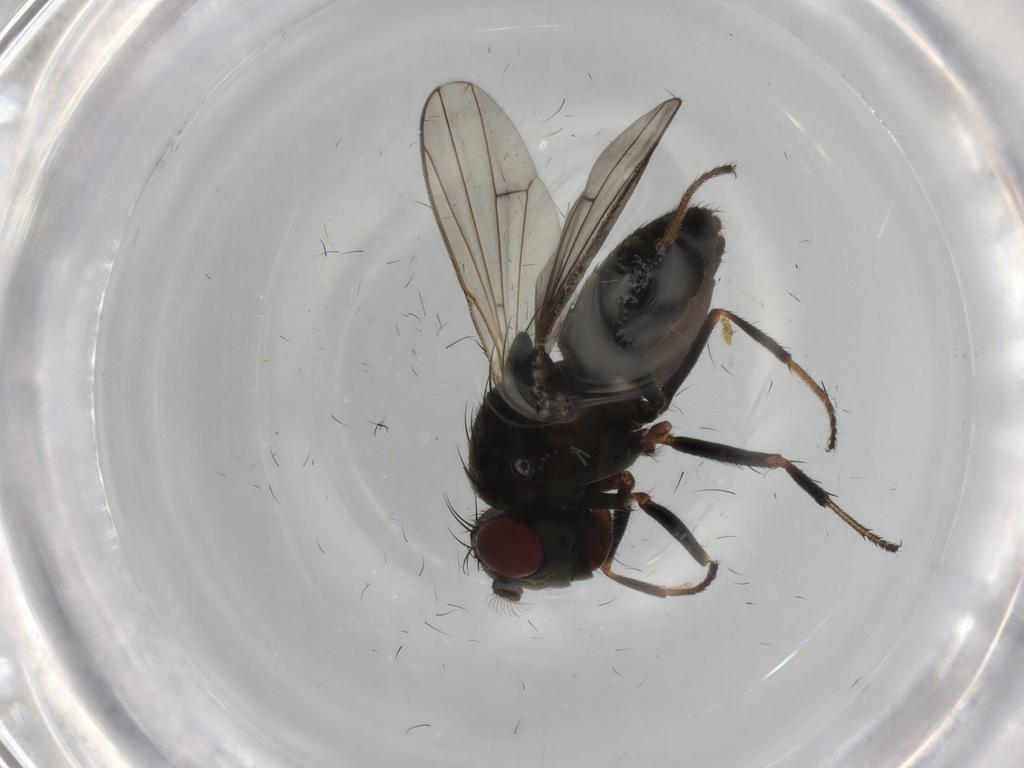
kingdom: Animalia
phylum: Arthropoda
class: Insecta
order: Diptera
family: Ephydridae
